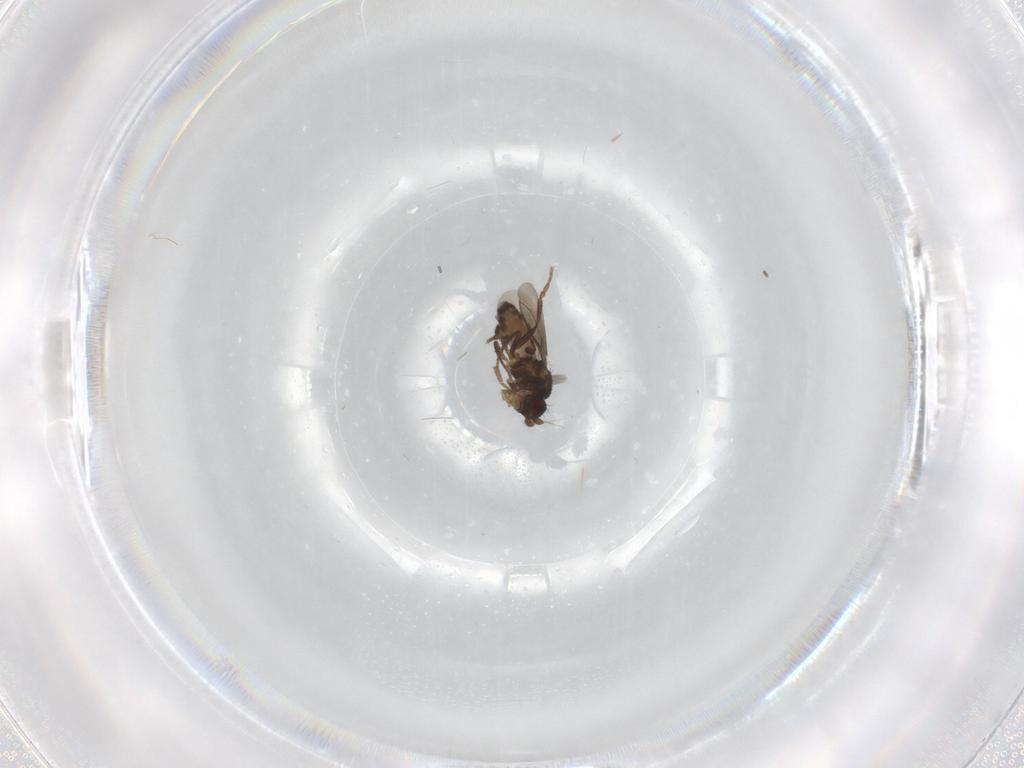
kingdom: Animalia
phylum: Arthropoda
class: Insecta
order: Diptera
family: Sphaeroceridae
